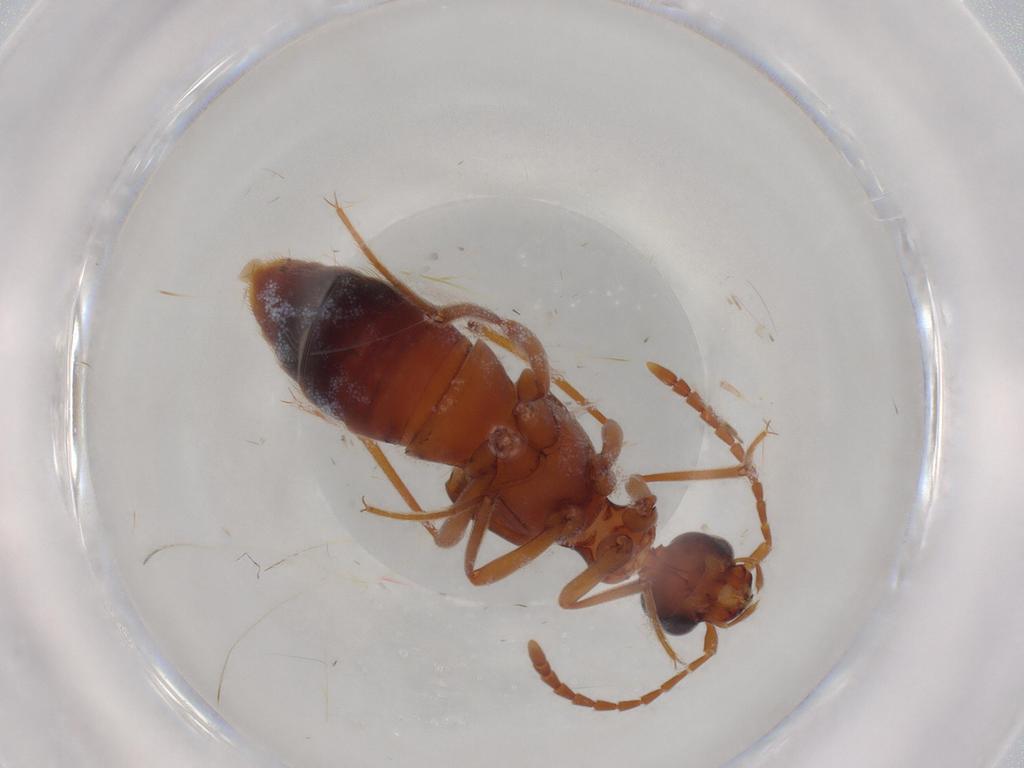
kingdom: Animalia
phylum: Arthropoda
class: Insecta
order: Coleoptera
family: Staphylinidae
